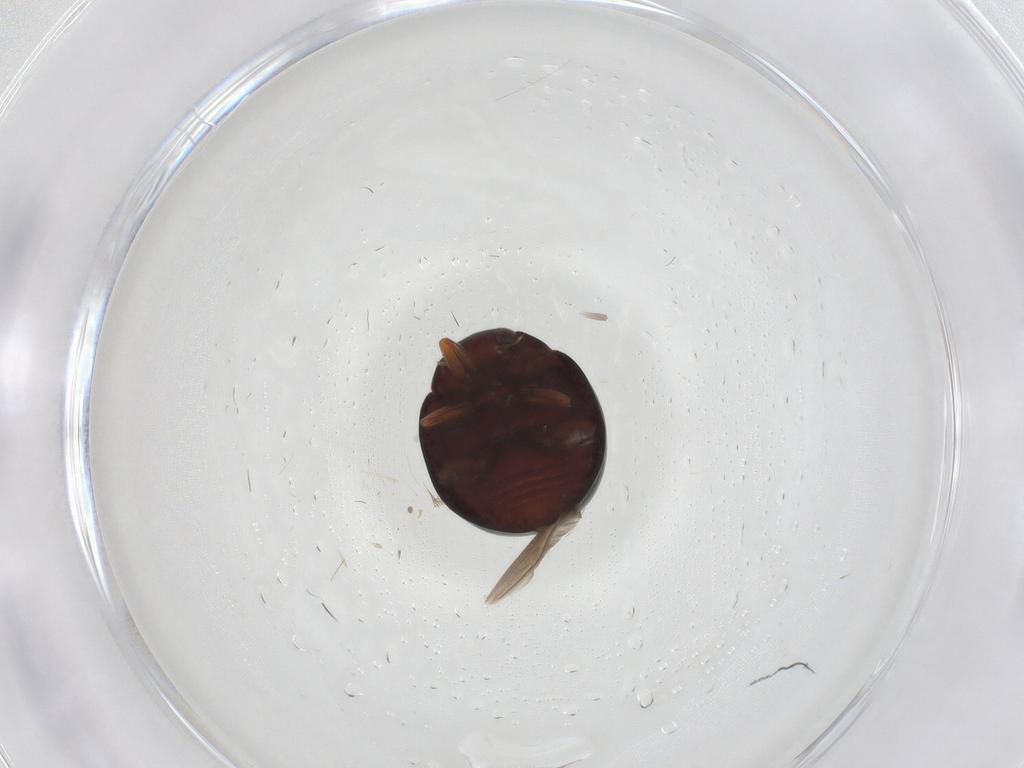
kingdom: Animalia
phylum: Arthropoda
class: Insecta
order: Coleoptera
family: Coccinellidae
